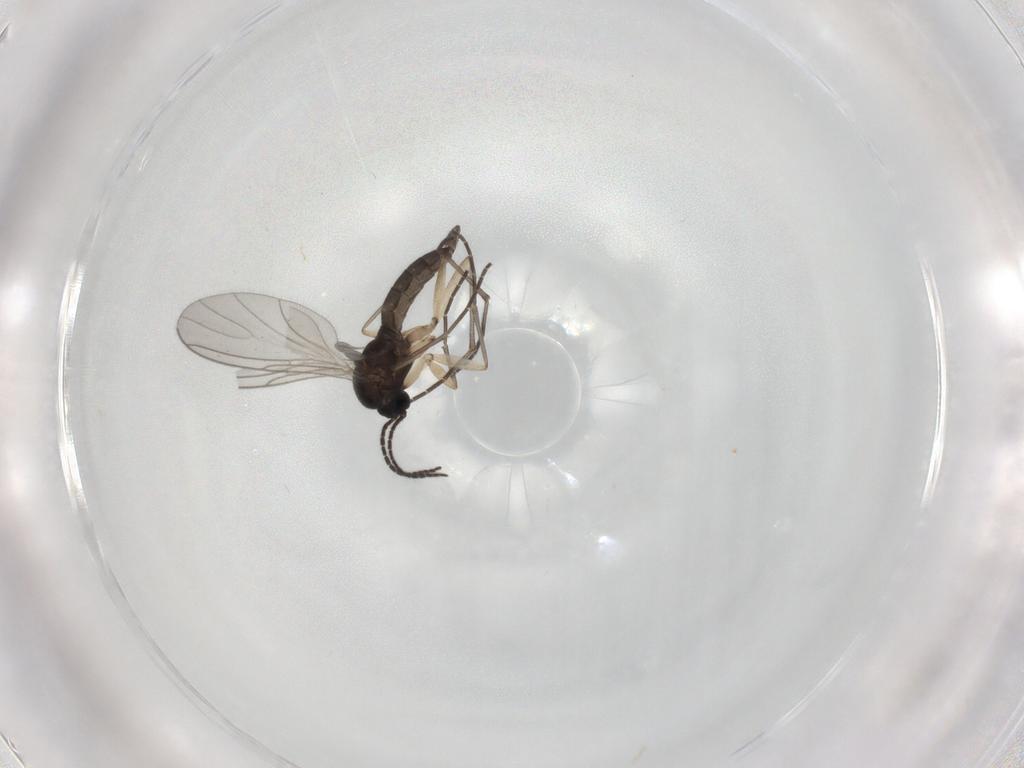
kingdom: Animalia
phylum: Arthropoda
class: Insecta
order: Diptera
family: Sciaridae
